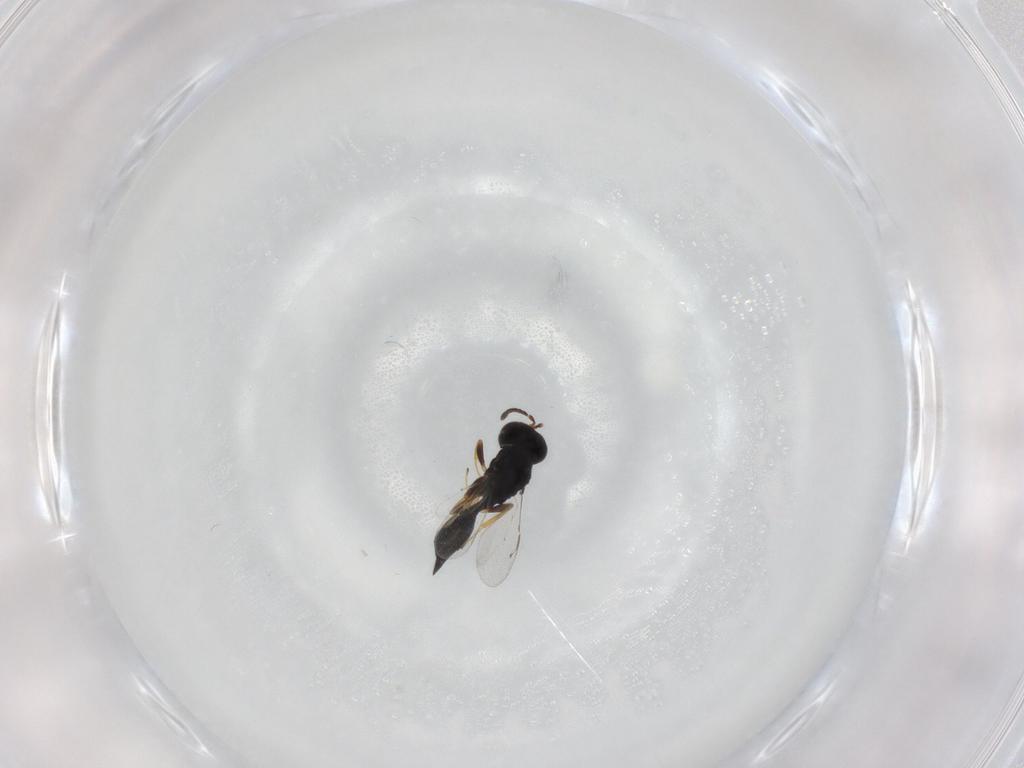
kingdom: Animalia
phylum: Arthropoda
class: Insecta
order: Hymenoptera
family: Pteromalidae
